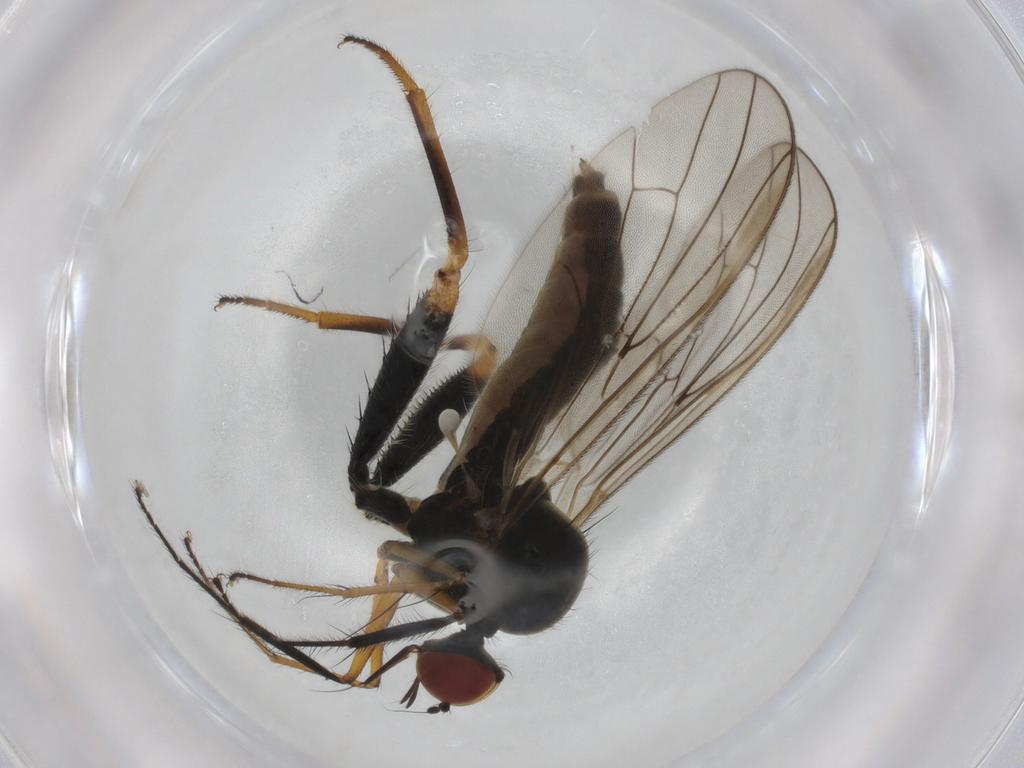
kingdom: Animalia
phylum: Arthropoda
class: Insecta
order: Diptera
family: Hybotidae
